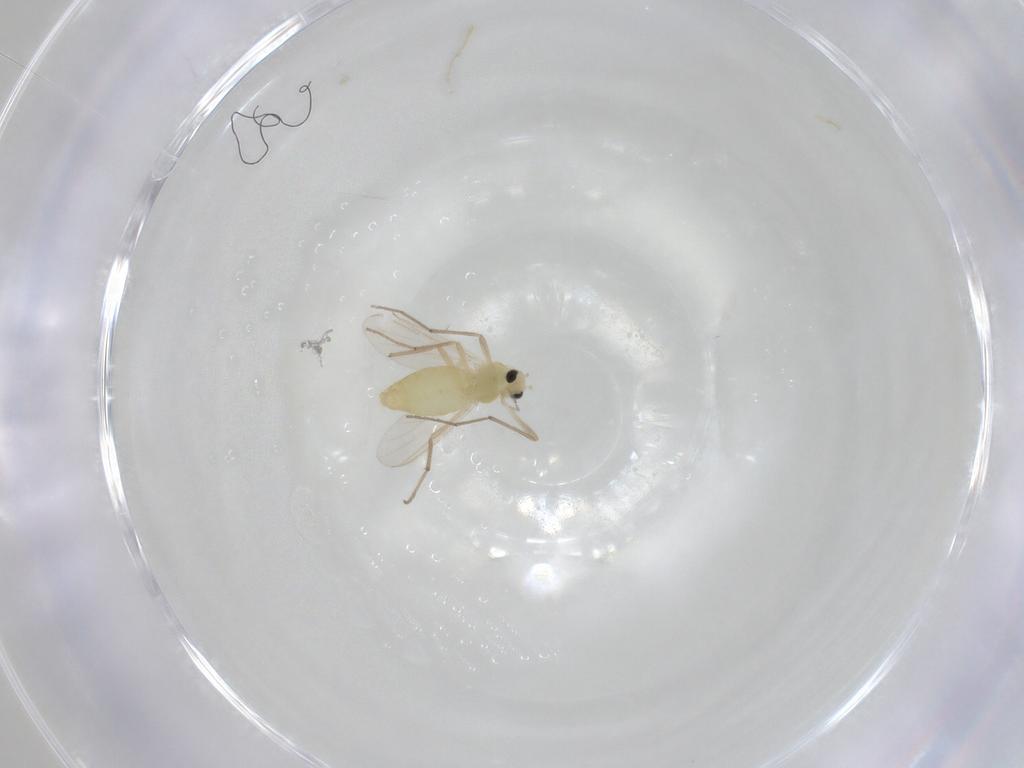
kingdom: Animalia
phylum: Arthropoda
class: Insecta
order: Diptera
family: Chironomidae
